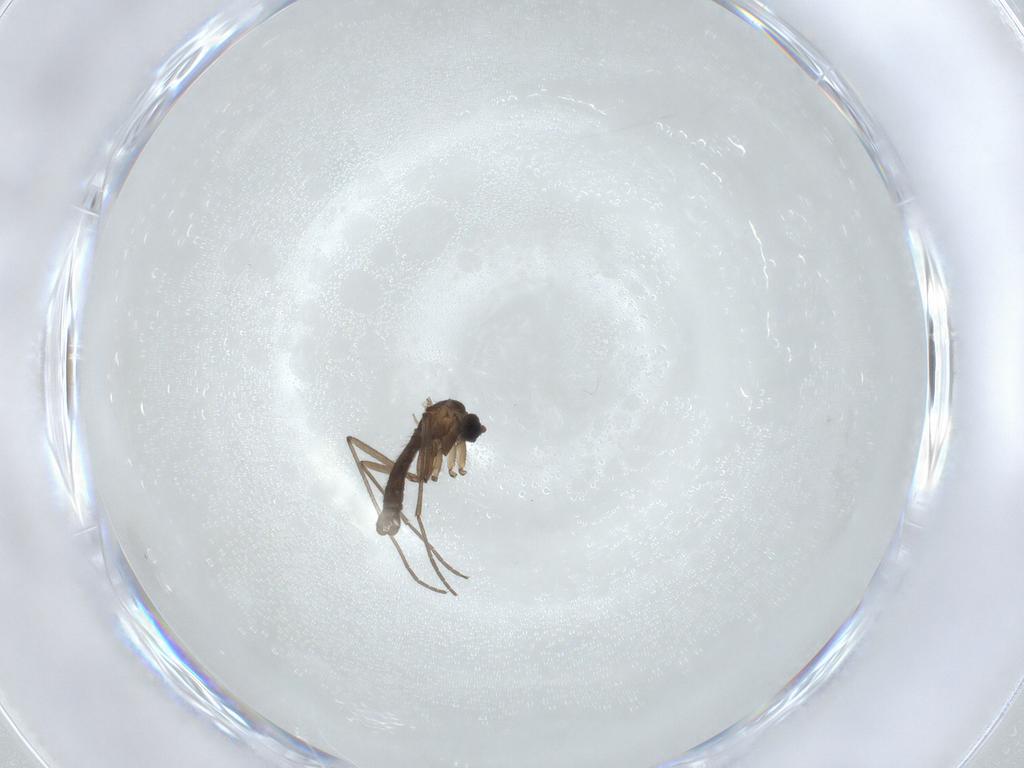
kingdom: Animalia
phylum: Arthropoda
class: Insecta
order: Diptera
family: Sciaridae
